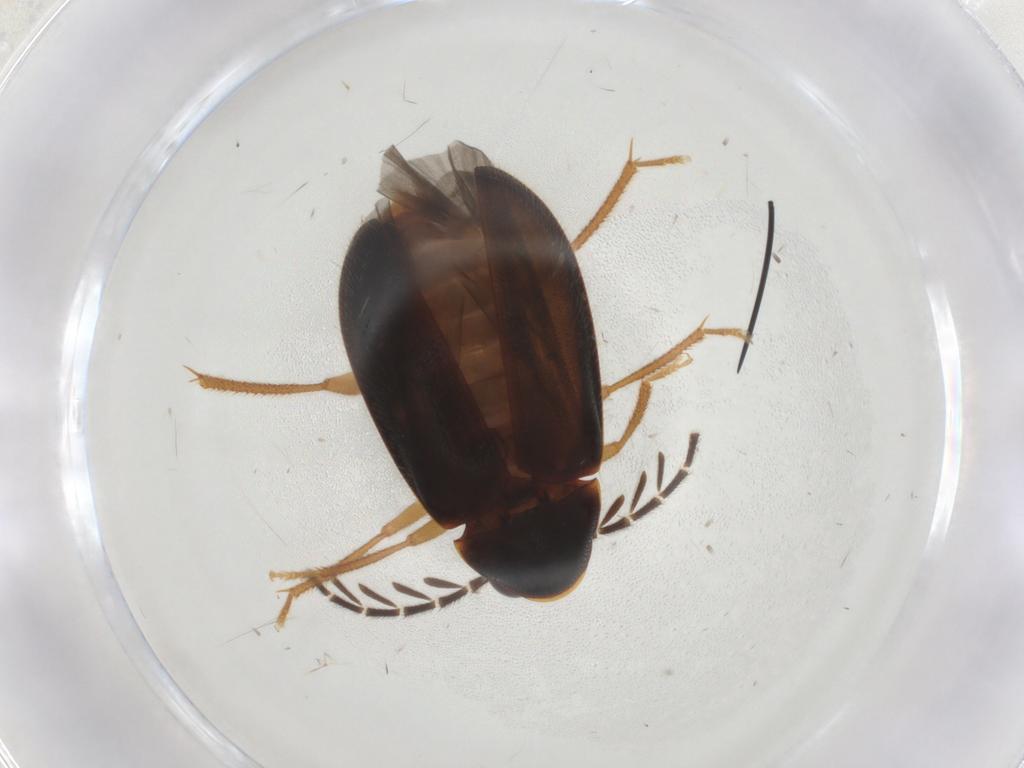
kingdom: Animalia
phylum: Arthropoda
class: Insecta
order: Coleoptera
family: Ptilodactylidae
